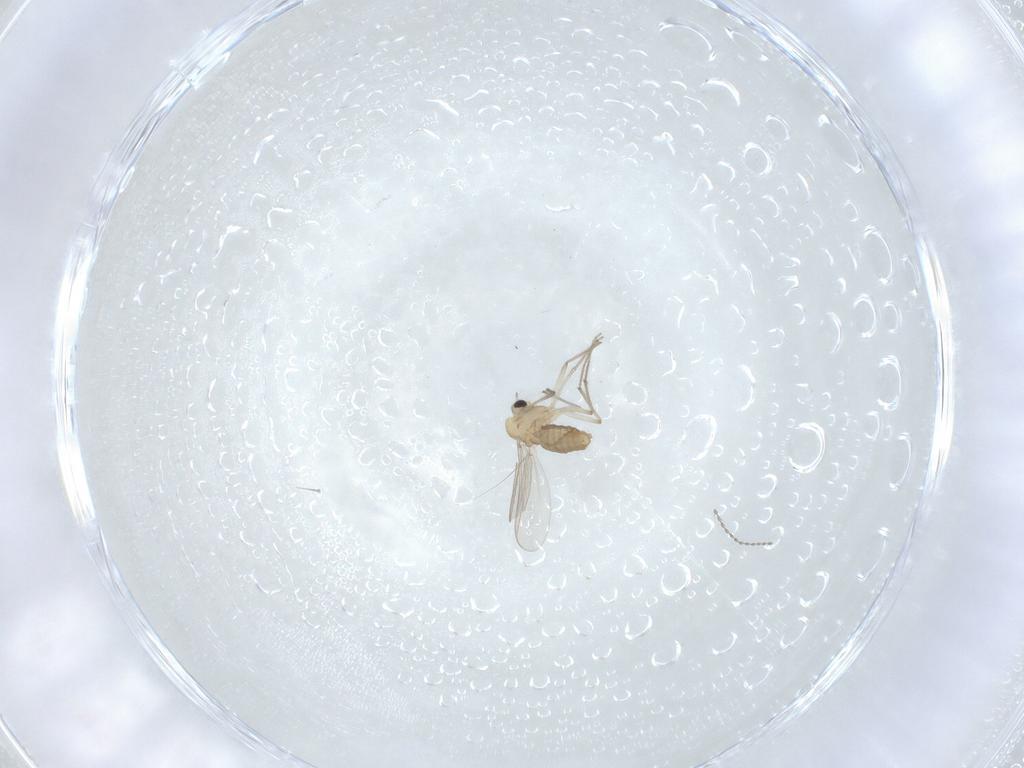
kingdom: Animalia
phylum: Arthropoda
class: Insecta
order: Diptera
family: Chironomidae
